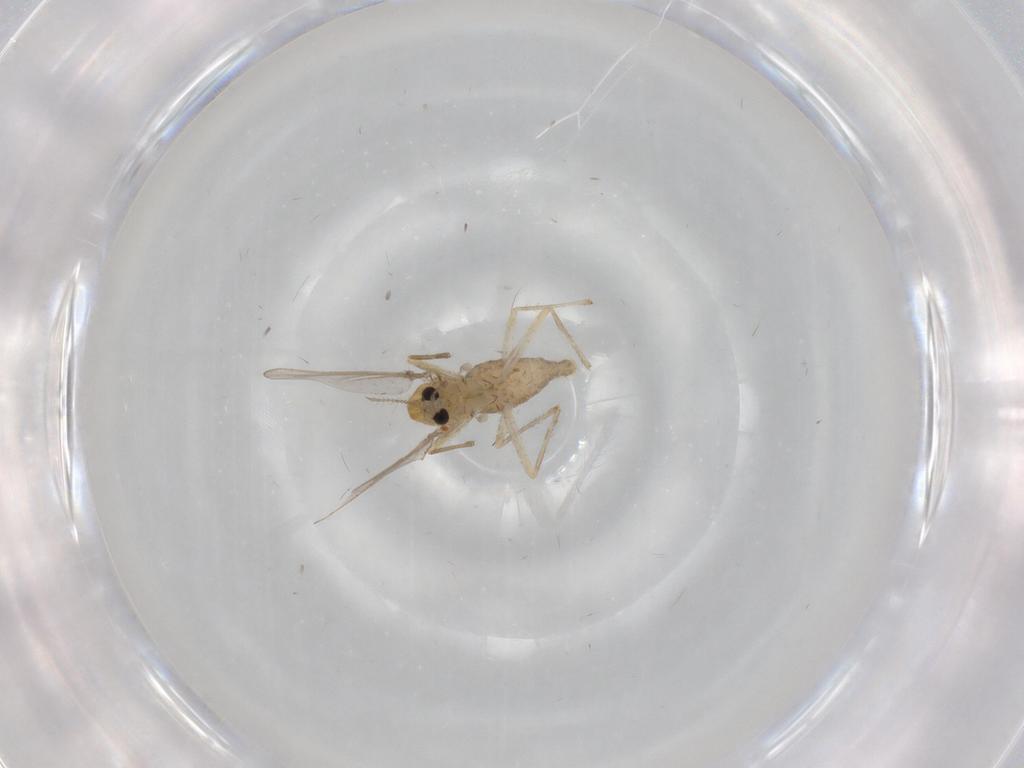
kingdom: Animalia
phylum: Arthropoda
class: Insecta
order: Diptera
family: Chironomidae
